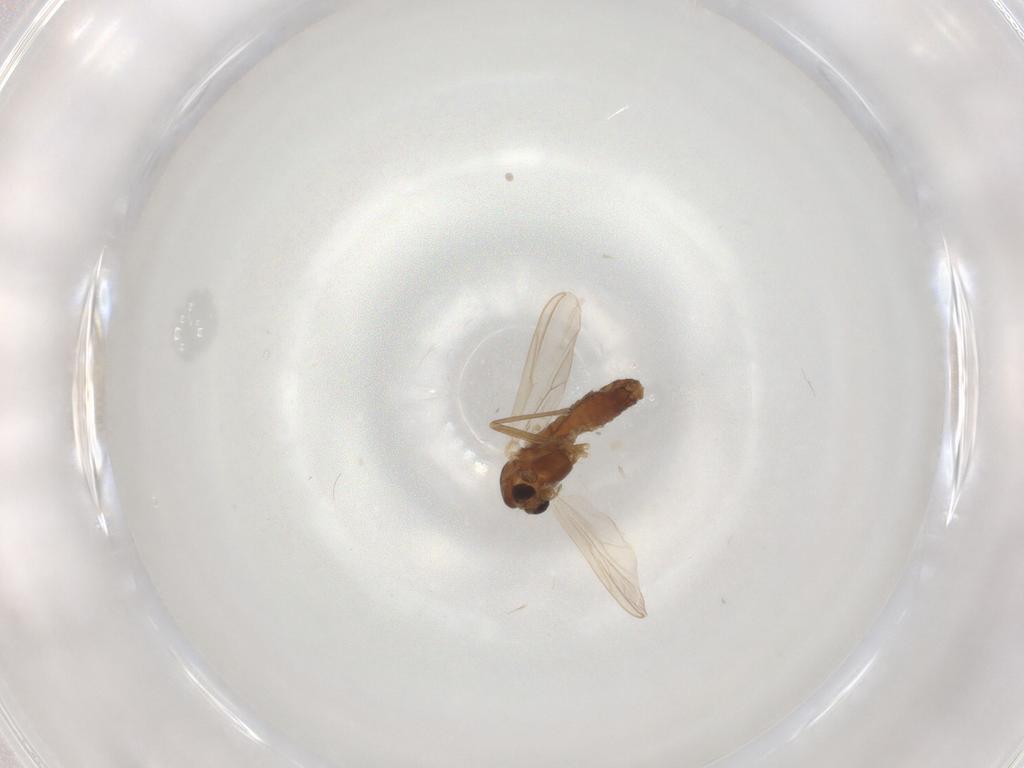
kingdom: Animalia
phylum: Arthropoda
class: Insecta
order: Diptera
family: Chironomidae
